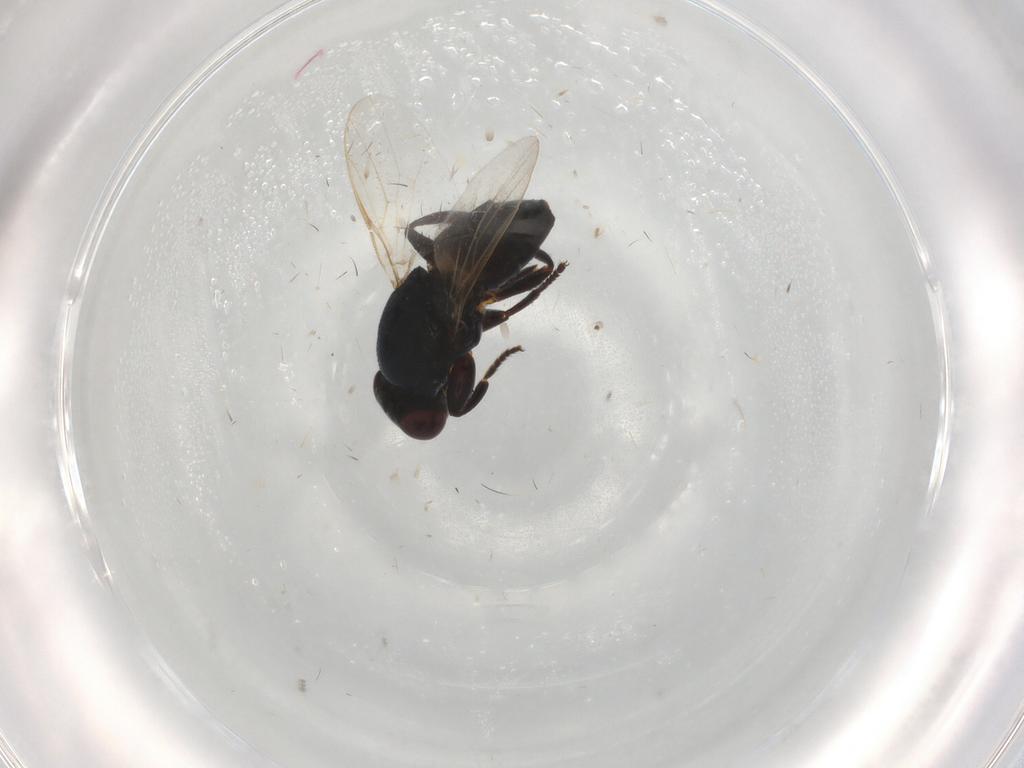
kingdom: Animalia
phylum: Arthropoda
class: Insecta
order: Diptera
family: Chloropidae
